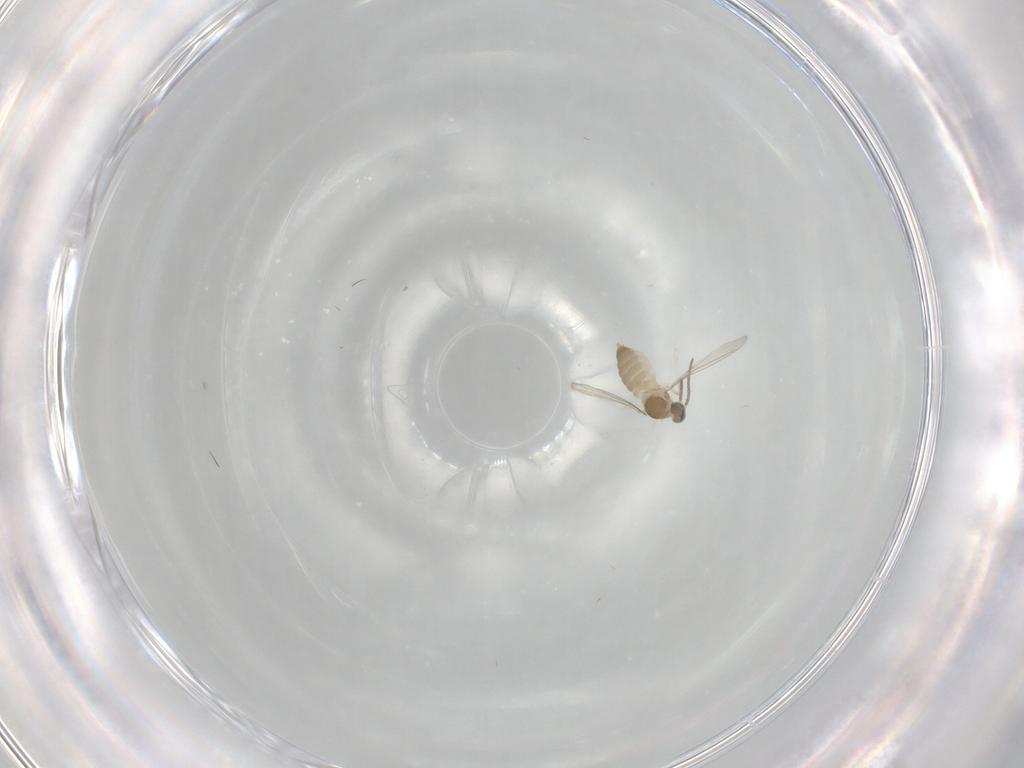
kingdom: Animalia
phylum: Arthropoda
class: Insecta
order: Diptera
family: Cecidomyiidae
